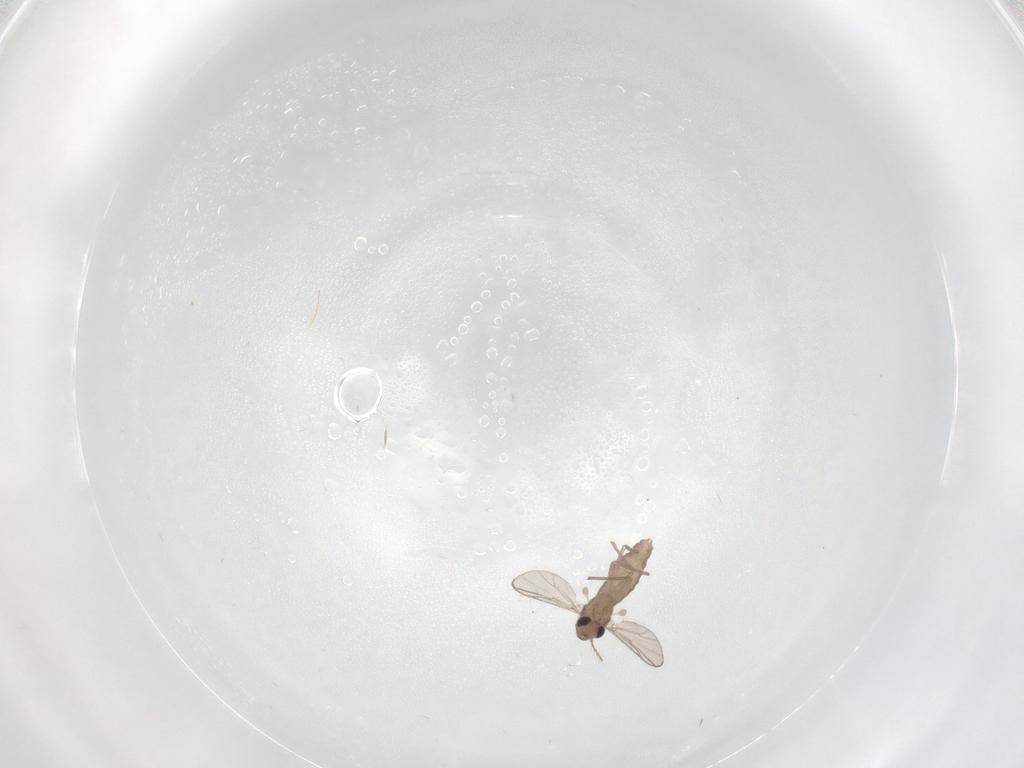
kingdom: Animalia
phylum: Arthropoda
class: Insecta
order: Diptera
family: Chironomidae
